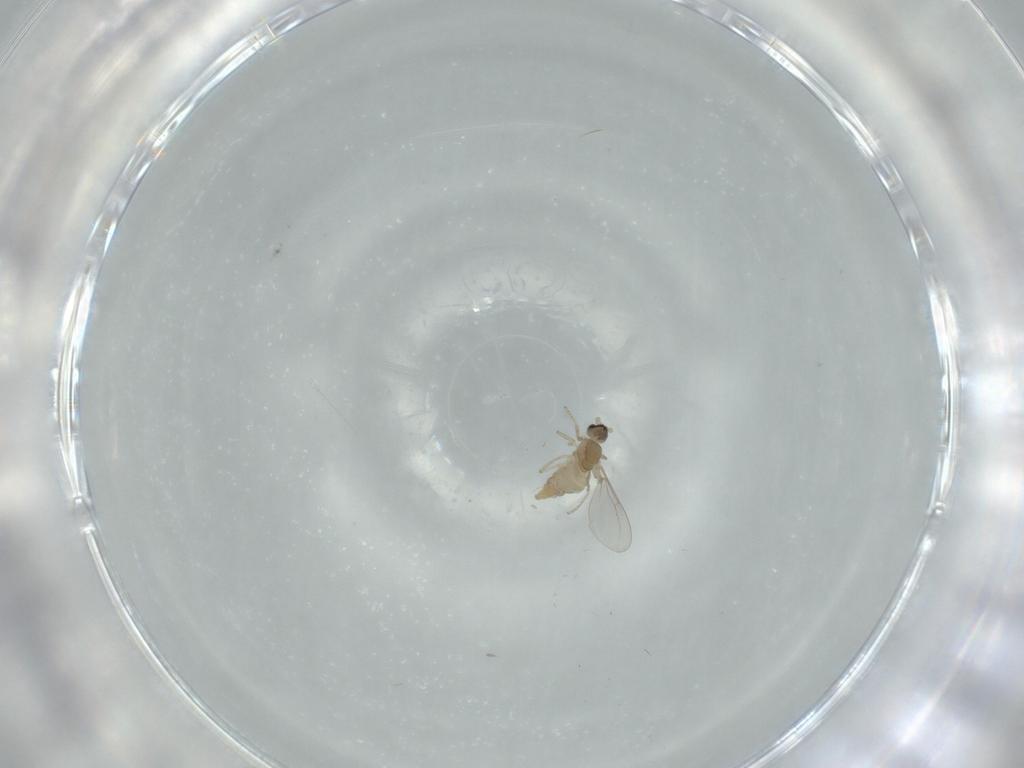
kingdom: Animalia
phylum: Arthropoda
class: Insecta
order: Diptera
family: Cecidomyiidae
